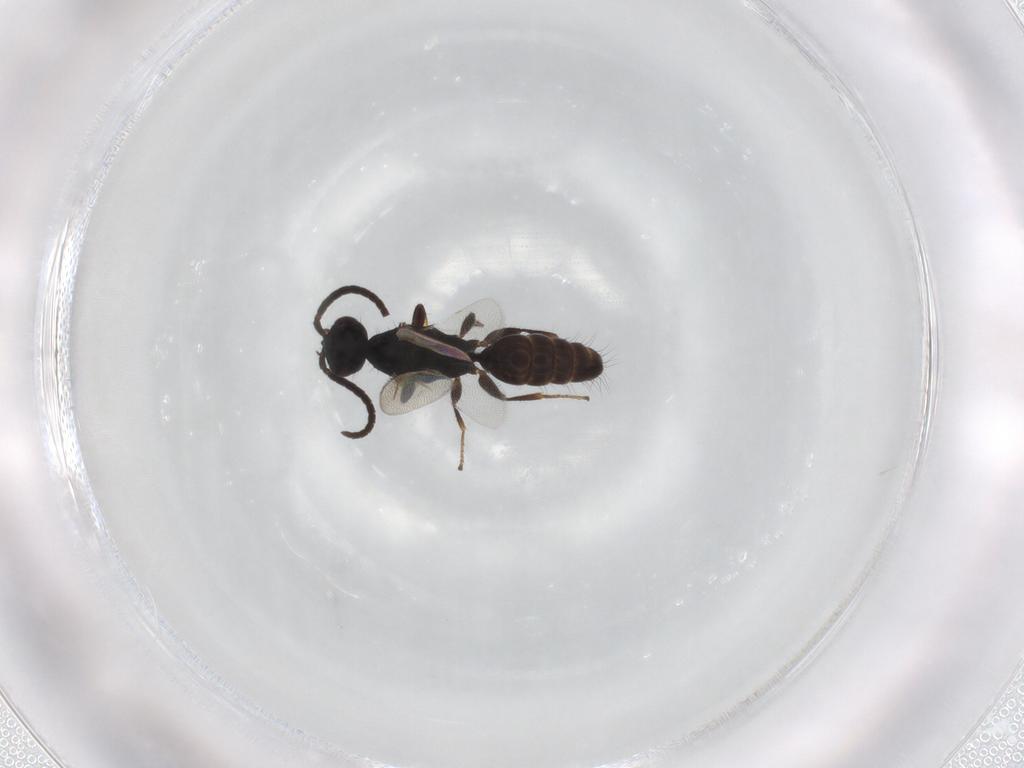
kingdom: Animalia
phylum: Arthropoda
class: Insecta
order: Hymenoptera
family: Bethylidae
